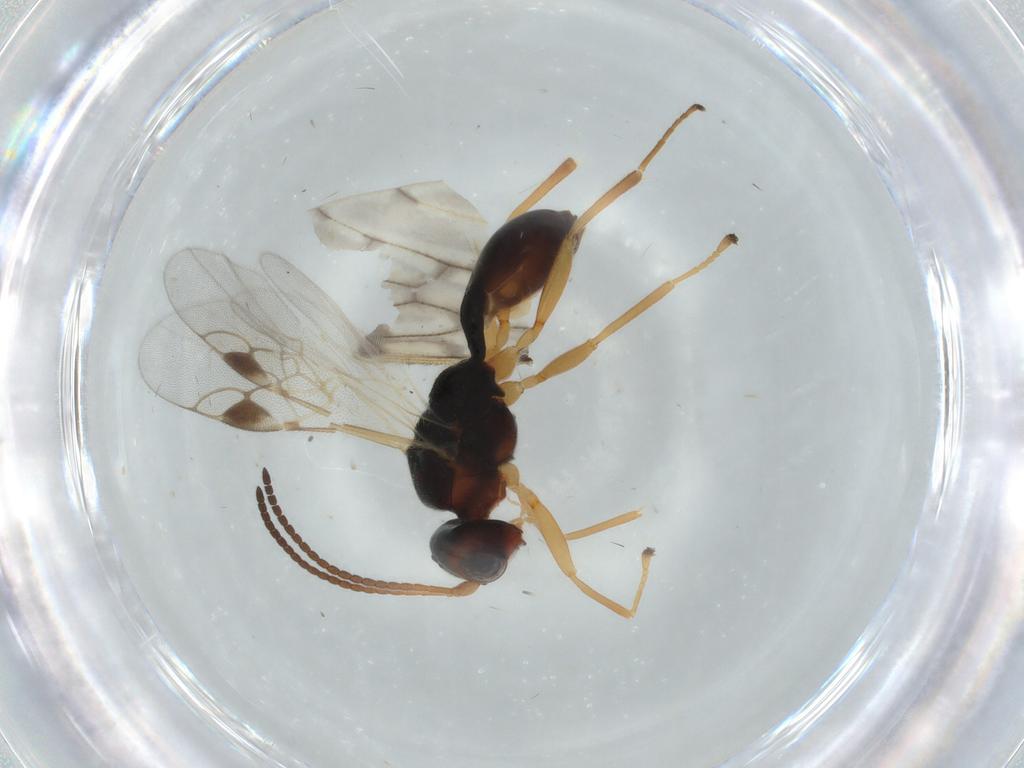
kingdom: Animalia
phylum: Arthropoda
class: Insecta
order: Hymenoptera
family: Braconidae
